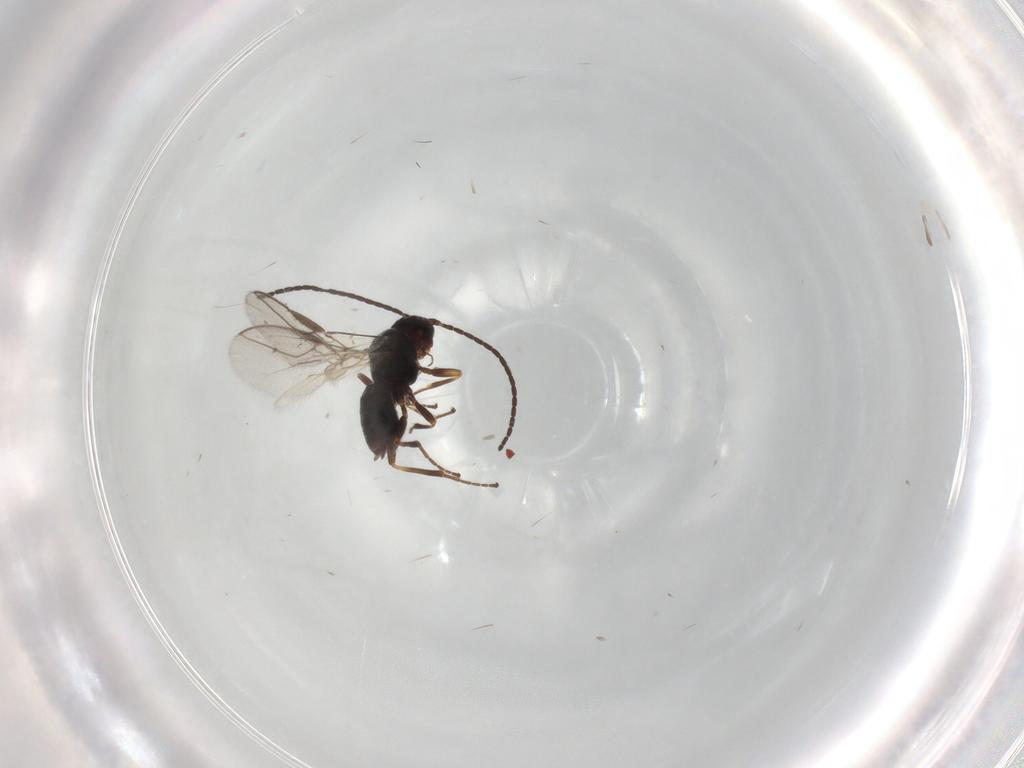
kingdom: Animalia
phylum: Arthropoda
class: Insecta
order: Hymenoptera
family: Braconidae
